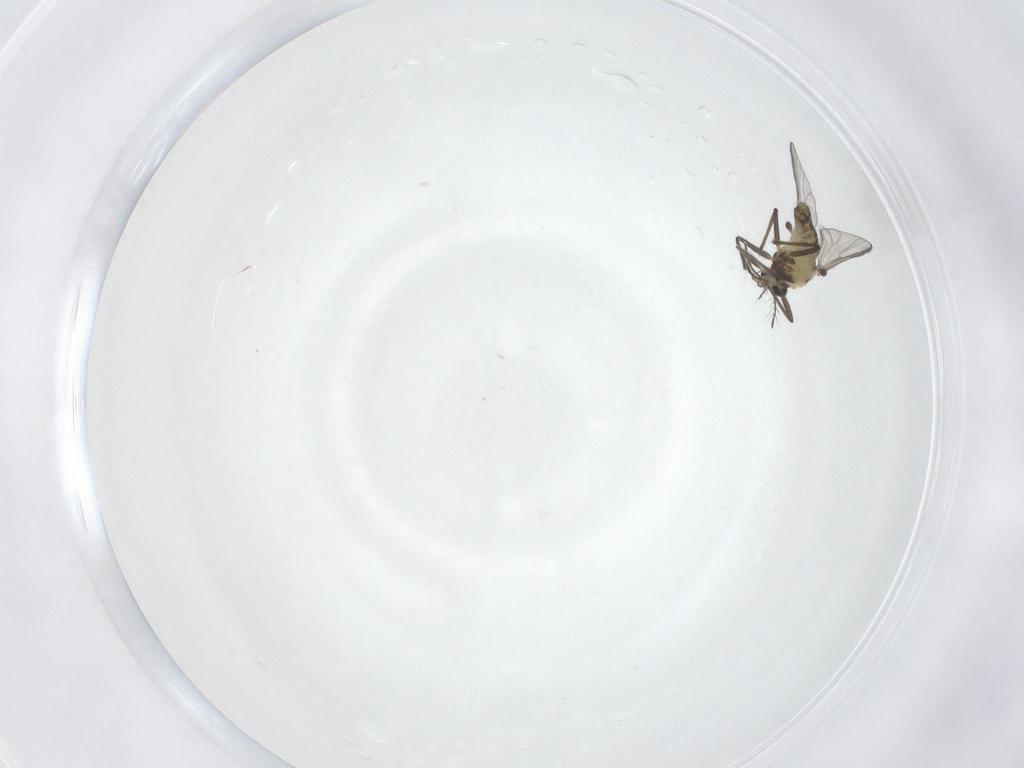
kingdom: Animalia
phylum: Arthropoda
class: Insecta
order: Diptera
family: Chironomidae
